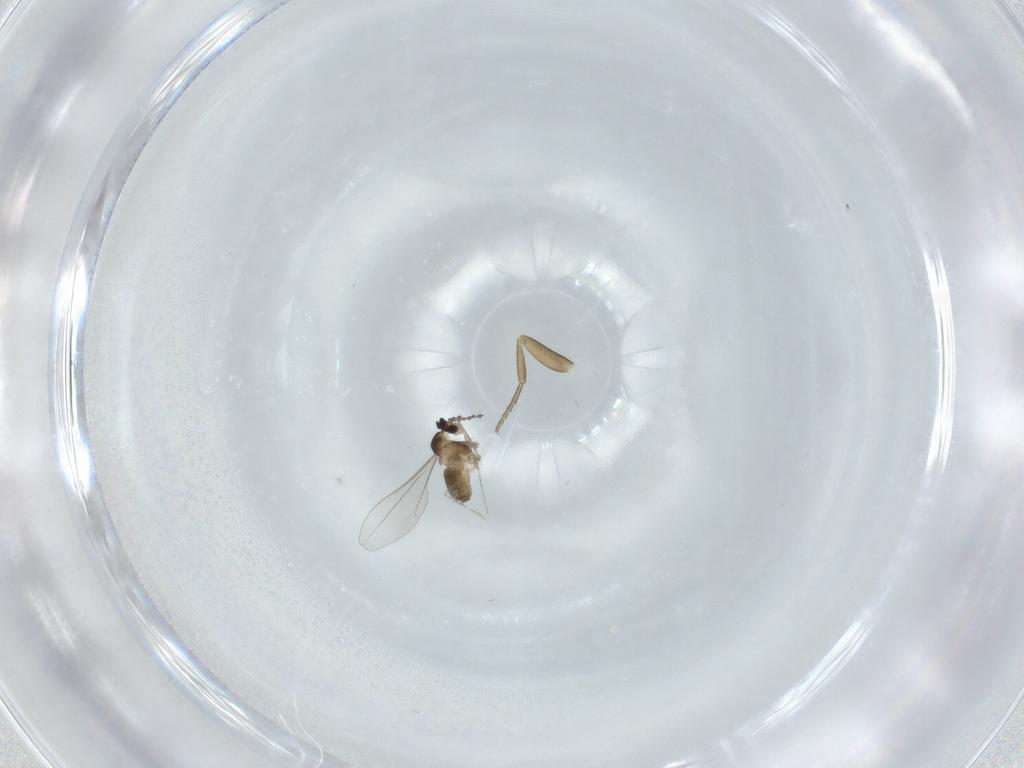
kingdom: Animalia
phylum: Arthropoda
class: Insecta
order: Diptera
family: Cecidomyiidae
